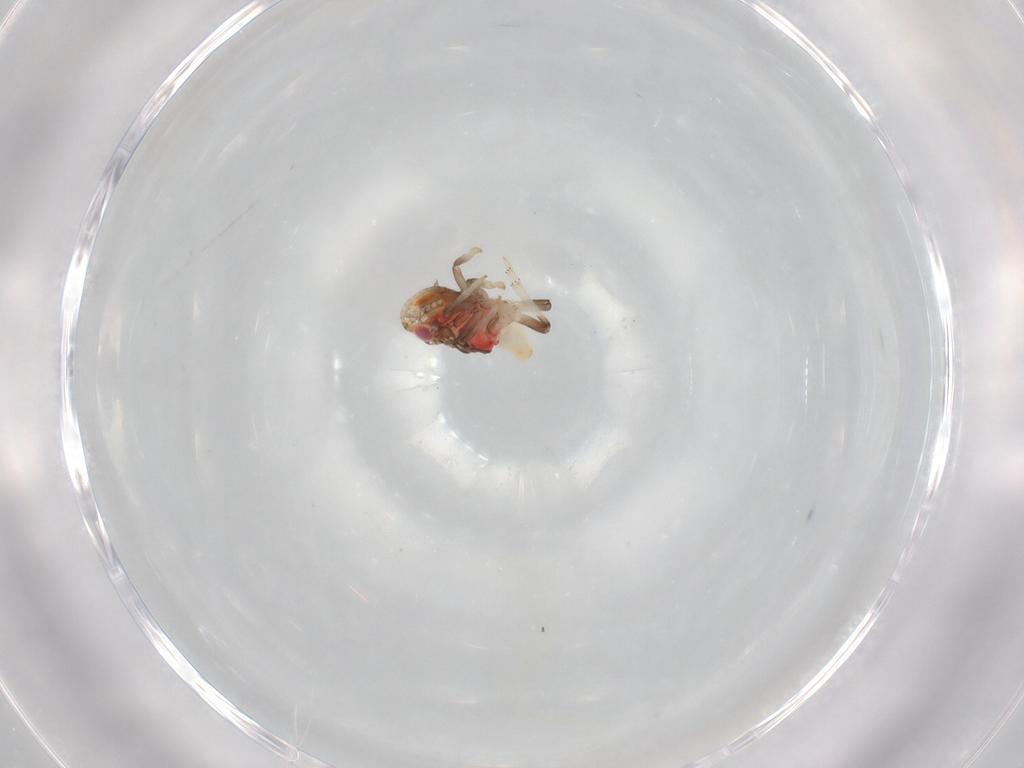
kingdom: Animalia
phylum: Arthropoda
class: Insecta
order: Hemiptera
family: Tropiduchidae
